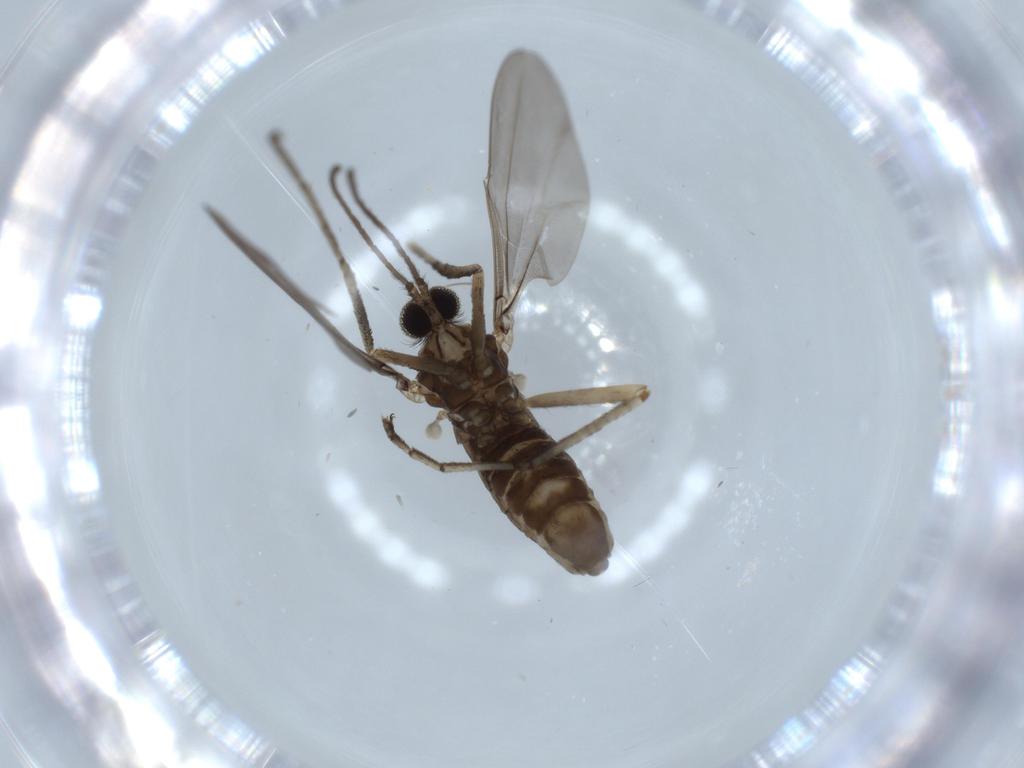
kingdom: Animalia
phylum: Arthropoda
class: Insecta
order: Diptera
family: Cecidomyiidae
